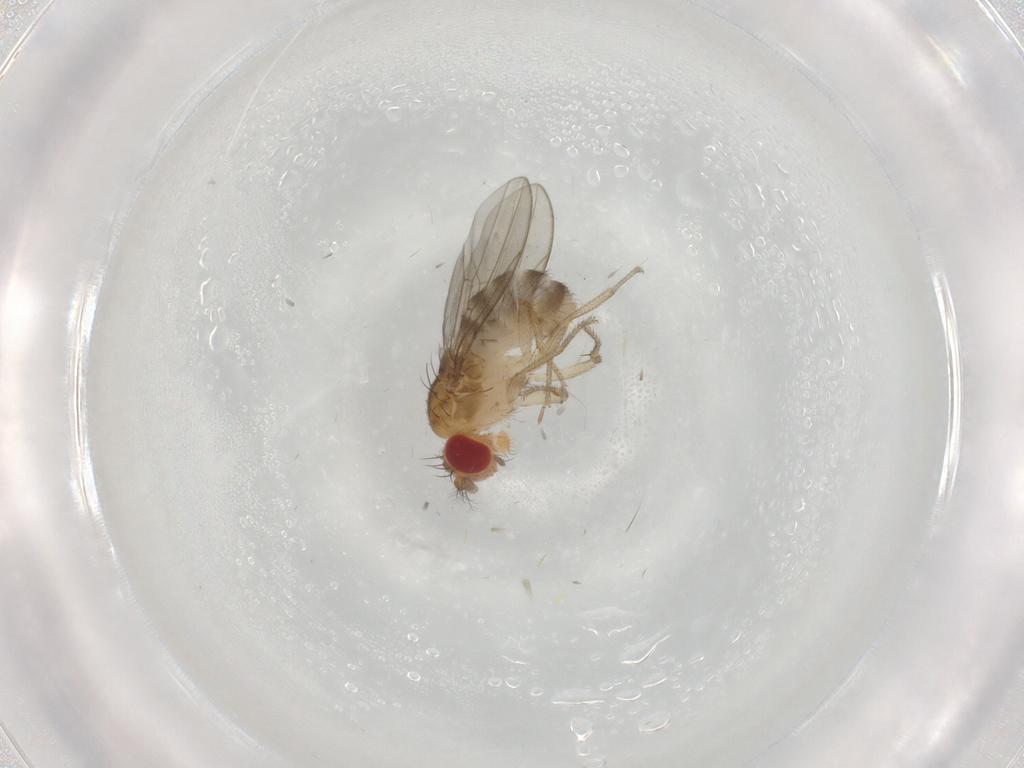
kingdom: Animalia
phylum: Arthropoda
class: Insecta
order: Diptera
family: Drosophilidae
